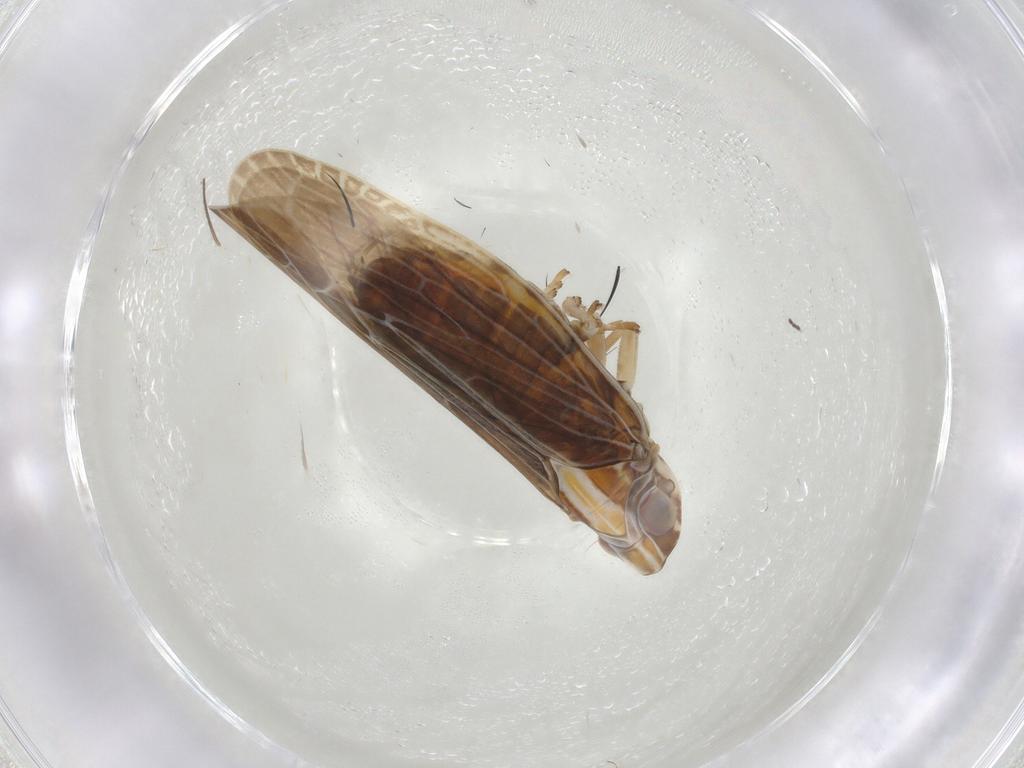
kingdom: Animalia
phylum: Arthropoda
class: Insecta
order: Hemiptera
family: Achilidae
